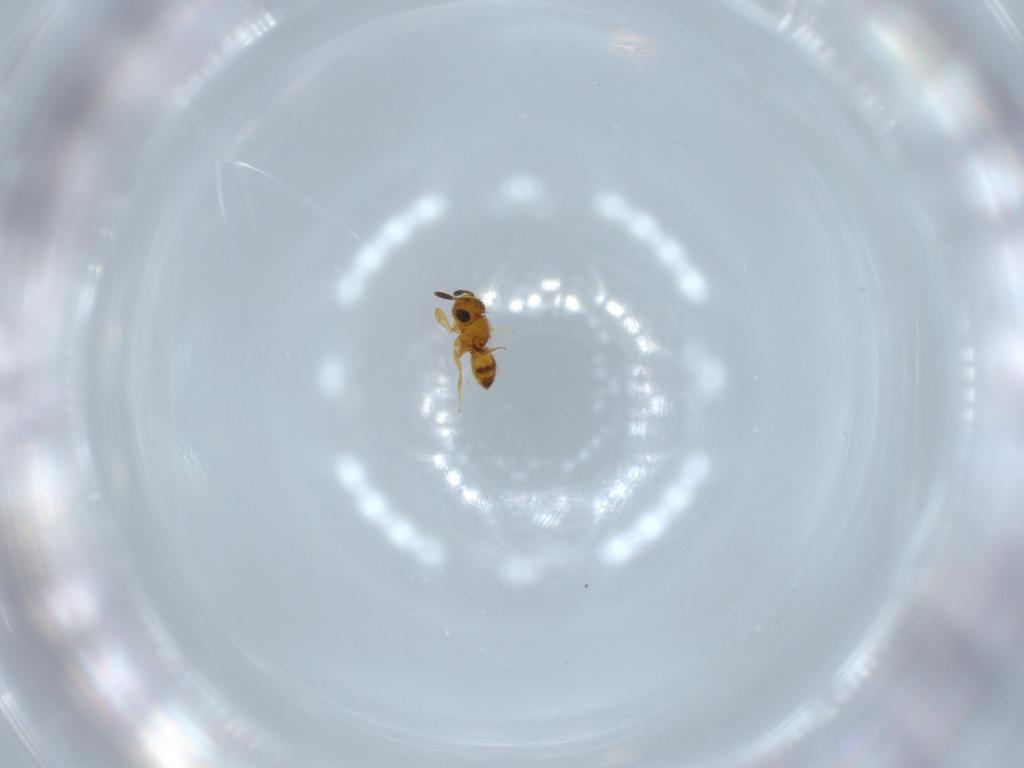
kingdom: Animalia
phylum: Arthropoda
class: Insecta
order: Hymenoptera
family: Scelionidae
